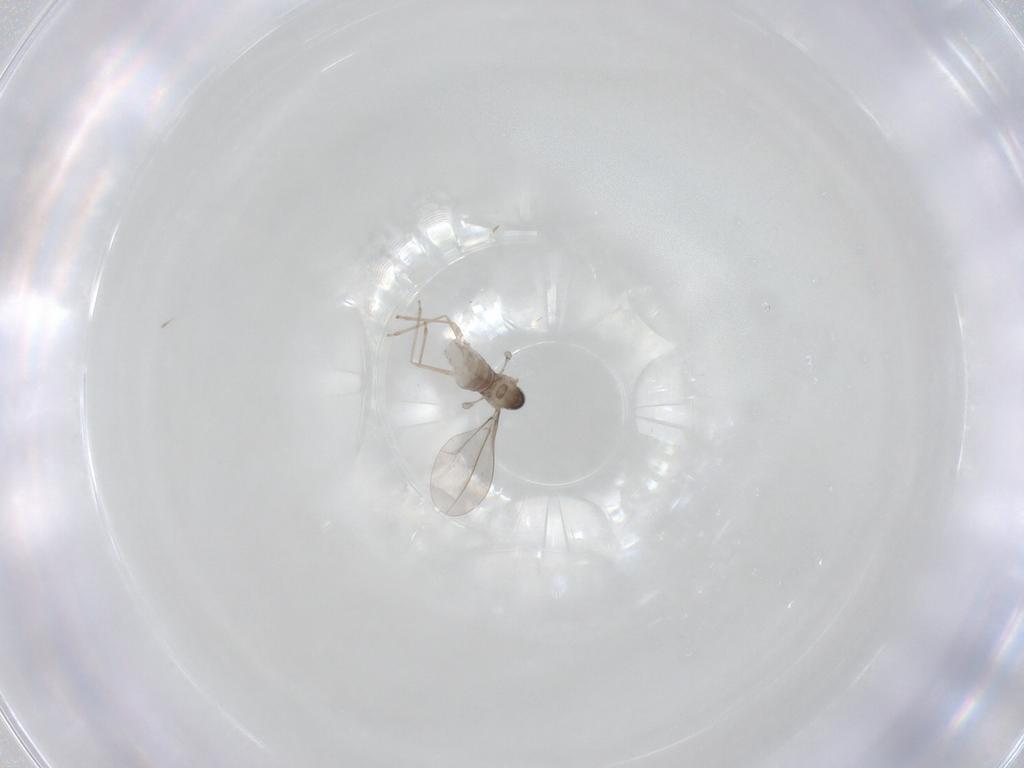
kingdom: Animalia
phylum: Arthropoda
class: Insecta
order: Diptera
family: Cecidomyiidae
